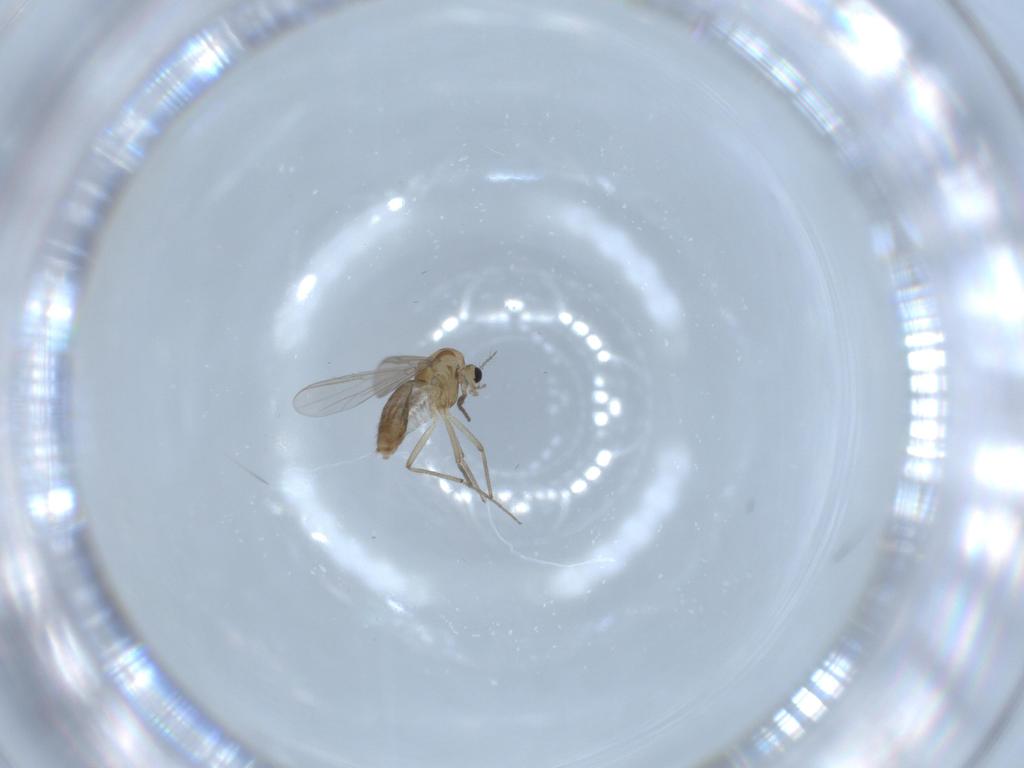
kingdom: Animalia
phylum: Arthropoda
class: Insecta
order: Diptera
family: Chironomidae
